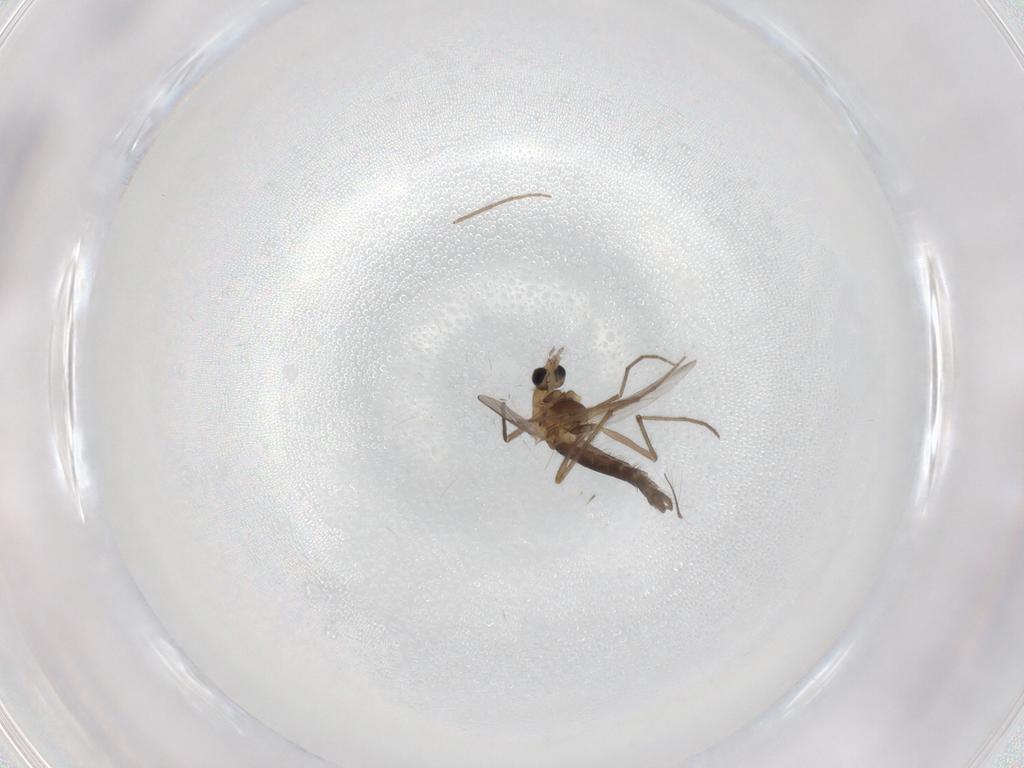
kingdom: Animalia
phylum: Arthropoda
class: Insecta
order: Diptera
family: Chironomidae
